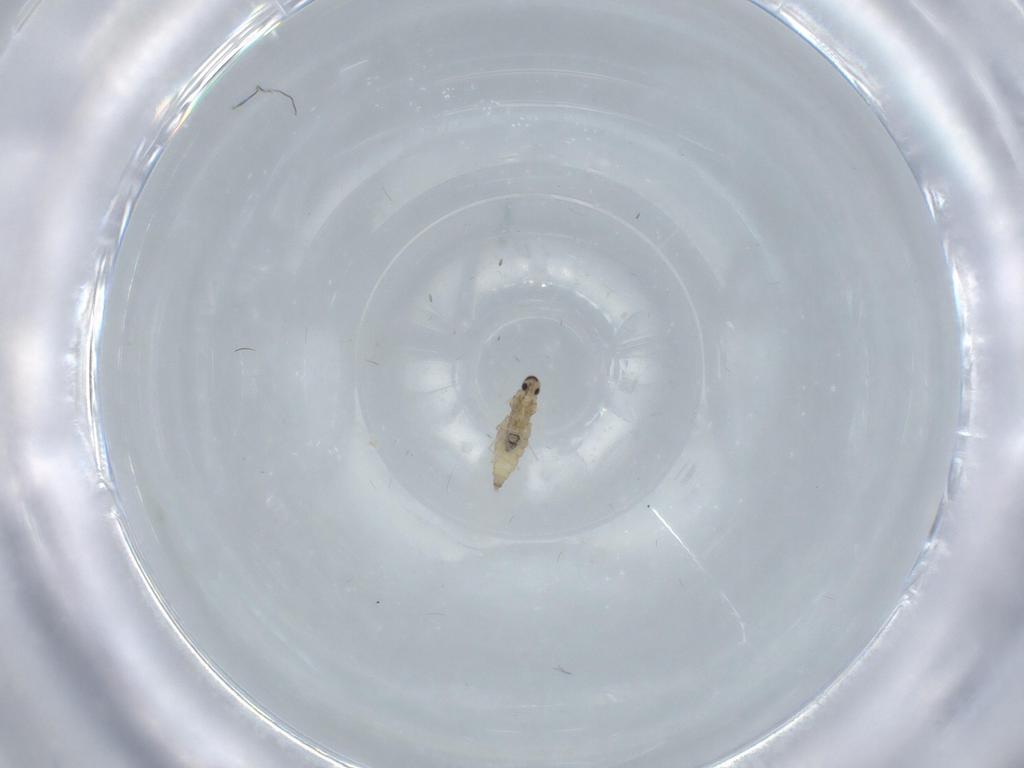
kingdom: Animalia
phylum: Arthropoda
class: Insecta
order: Diptera
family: Cecidomyiidae
